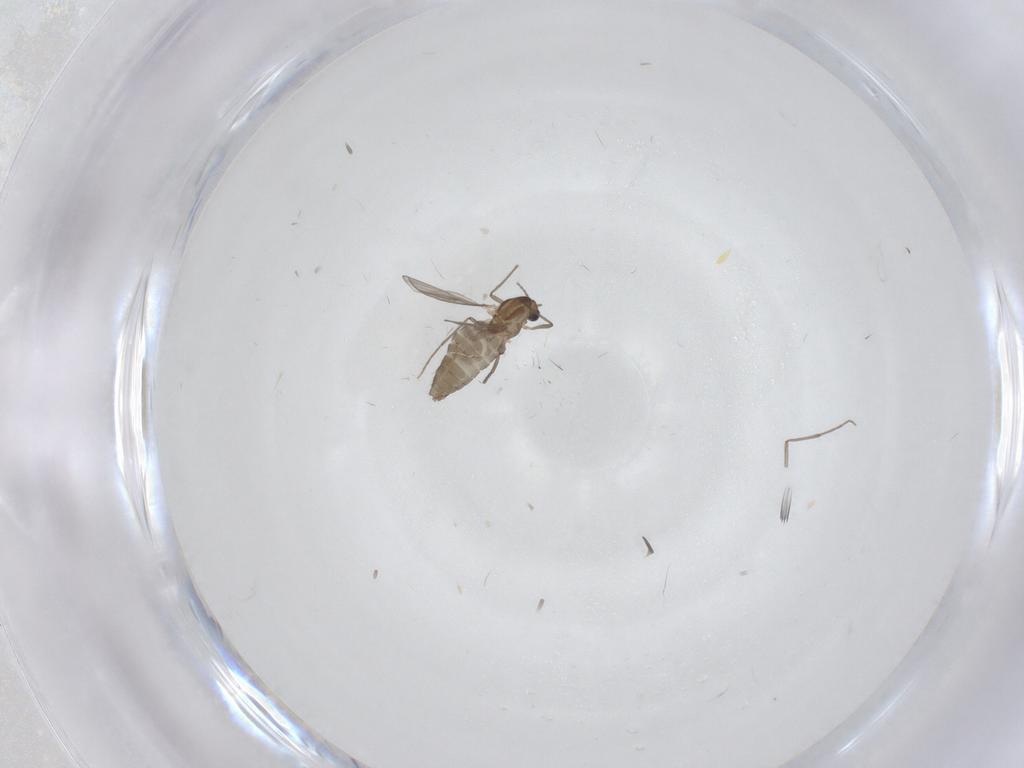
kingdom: Animalia
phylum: Arthropoda
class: Insecta
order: Diptera
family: Chironomidae
